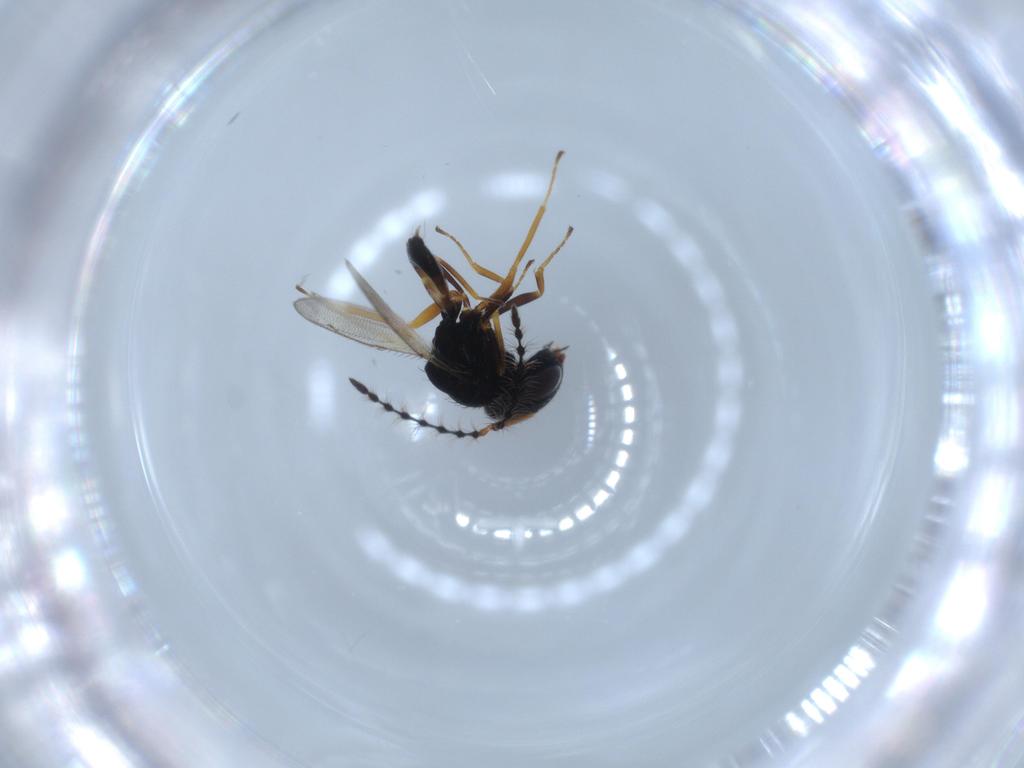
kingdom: Animalia
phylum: Arthropoda
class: Insecta
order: Hymenoptera
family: Pteromalidae
